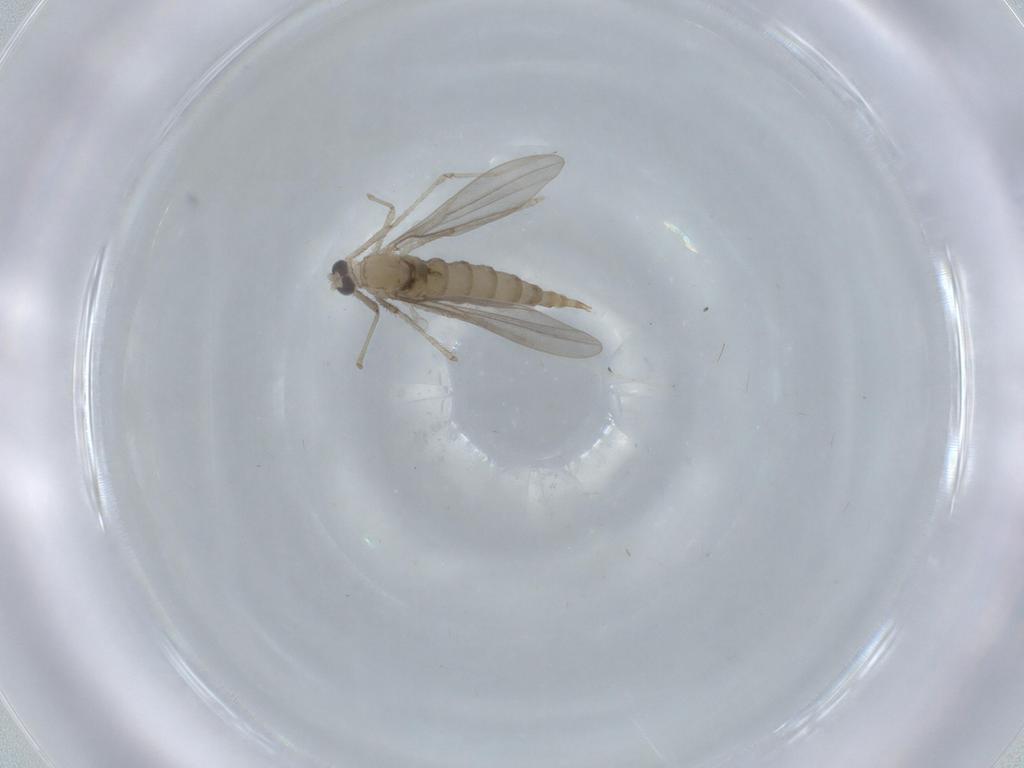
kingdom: Animalia
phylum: Arthropoda
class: Insecta
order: Diptera
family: Cecidomyiidae
